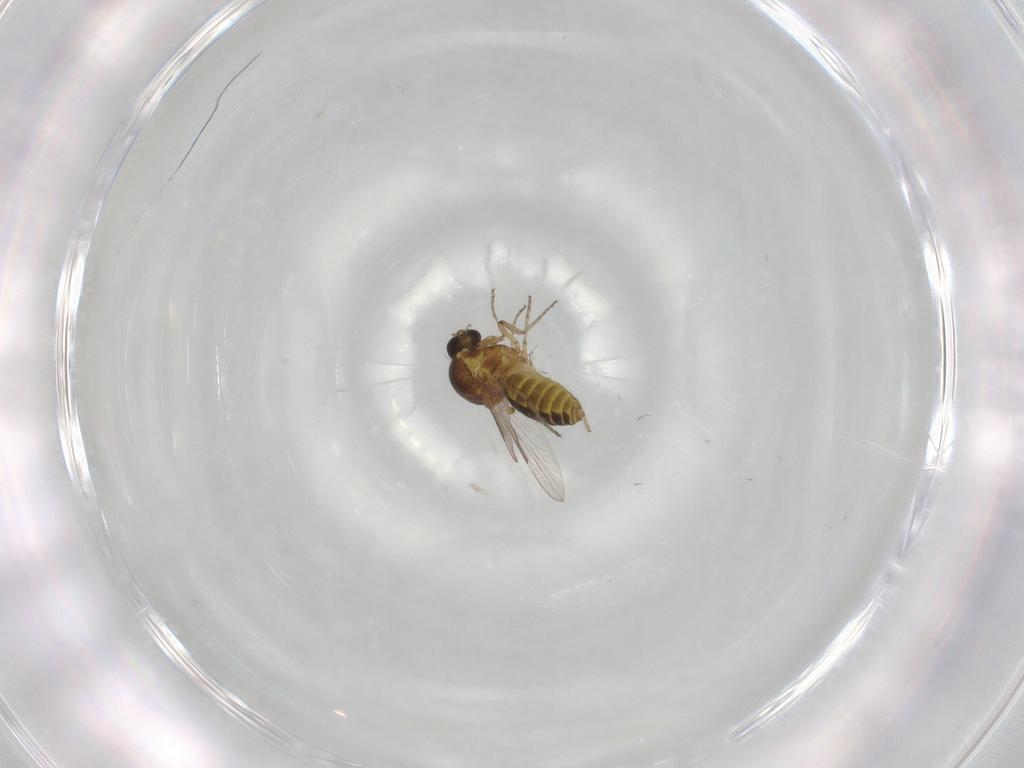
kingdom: Animalia
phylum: Arthropoda
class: Insecta
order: Diptera
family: Ceratopogonidae
